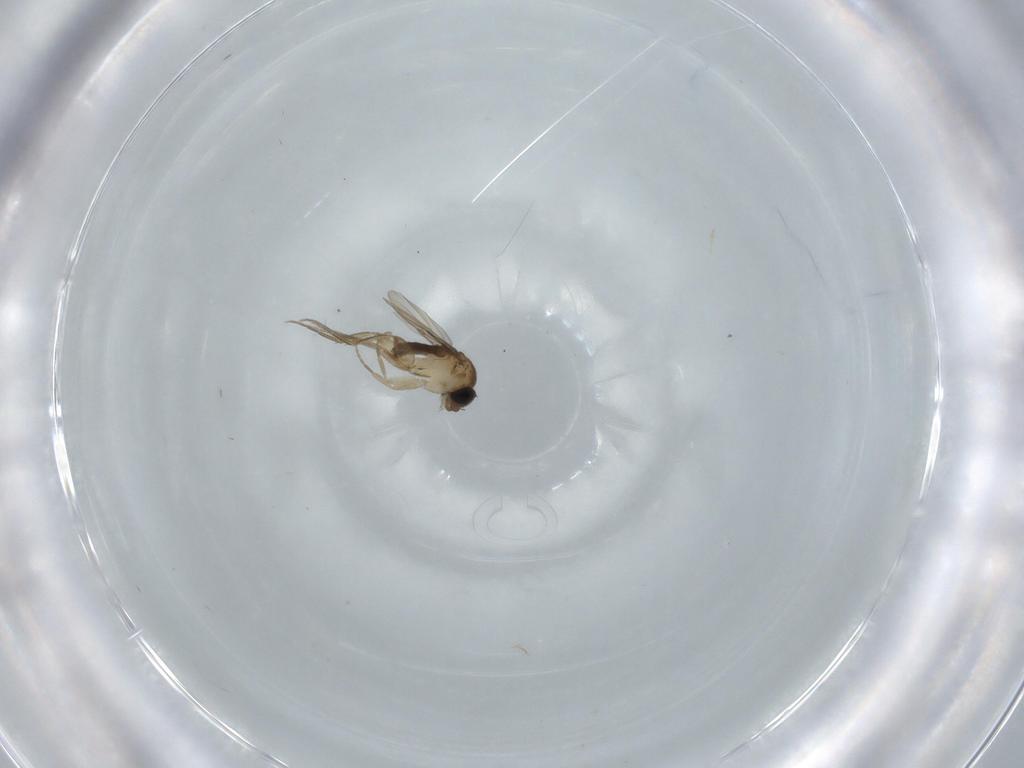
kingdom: Animalia
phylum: Arthropoda
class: Insecta
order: Diptera
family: Phoridae
